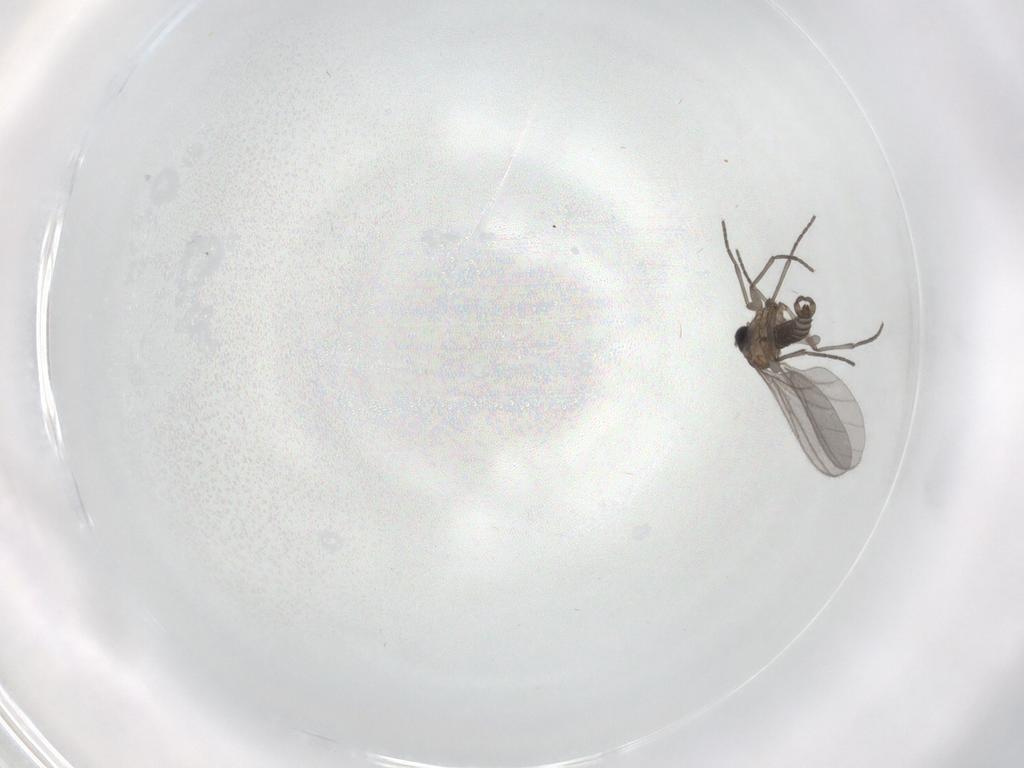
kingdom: Animalia
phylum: Arthropoda
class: Insecta
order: Diptera
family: Sciaridae
